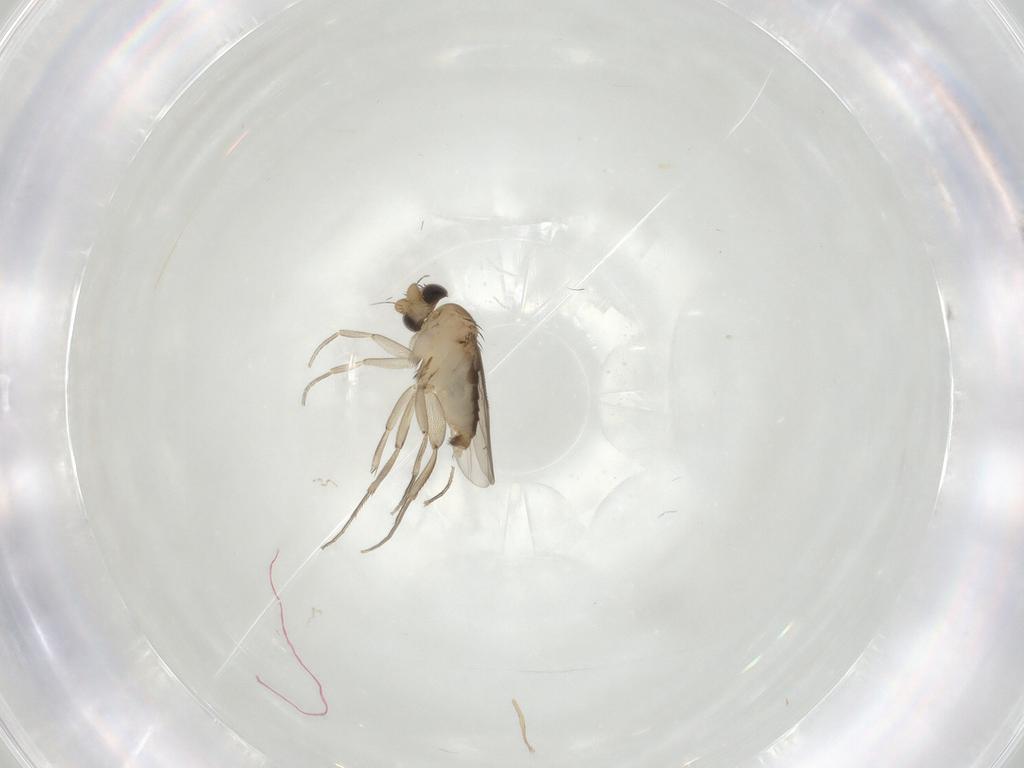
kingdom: Animalia
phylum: Arthropoda
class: Insecta
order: Diptera
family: Phoridae
